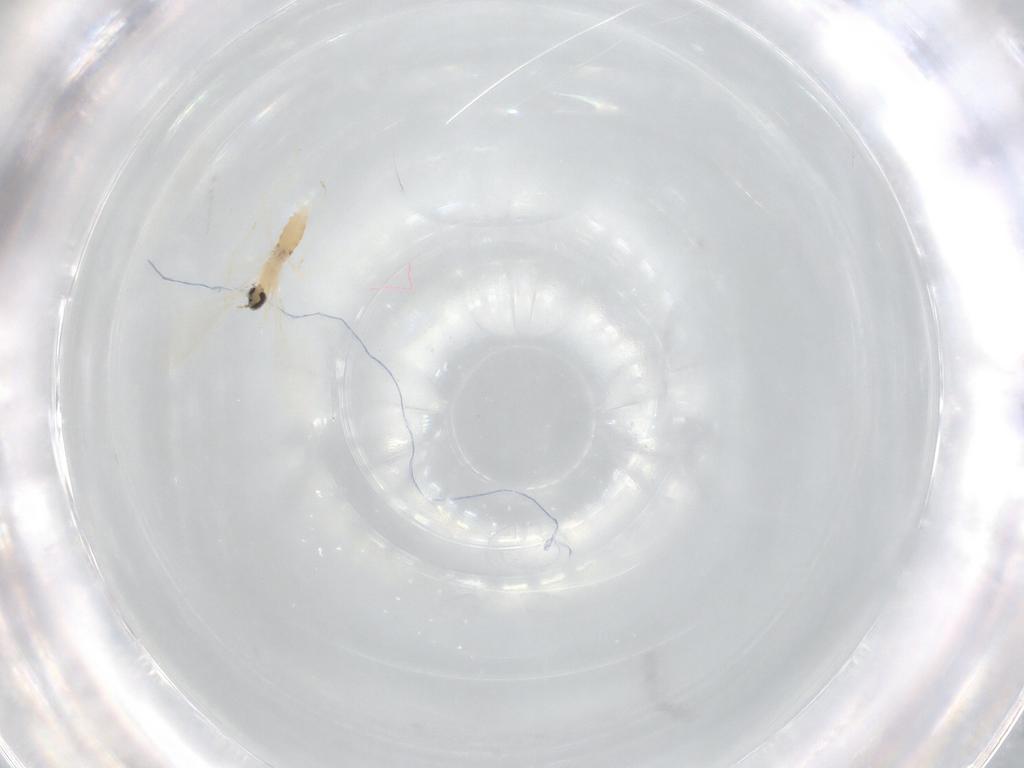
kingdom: Animalia
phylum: Arthropoda
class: Insecta
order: Diptera
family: Cecidomyiidae
